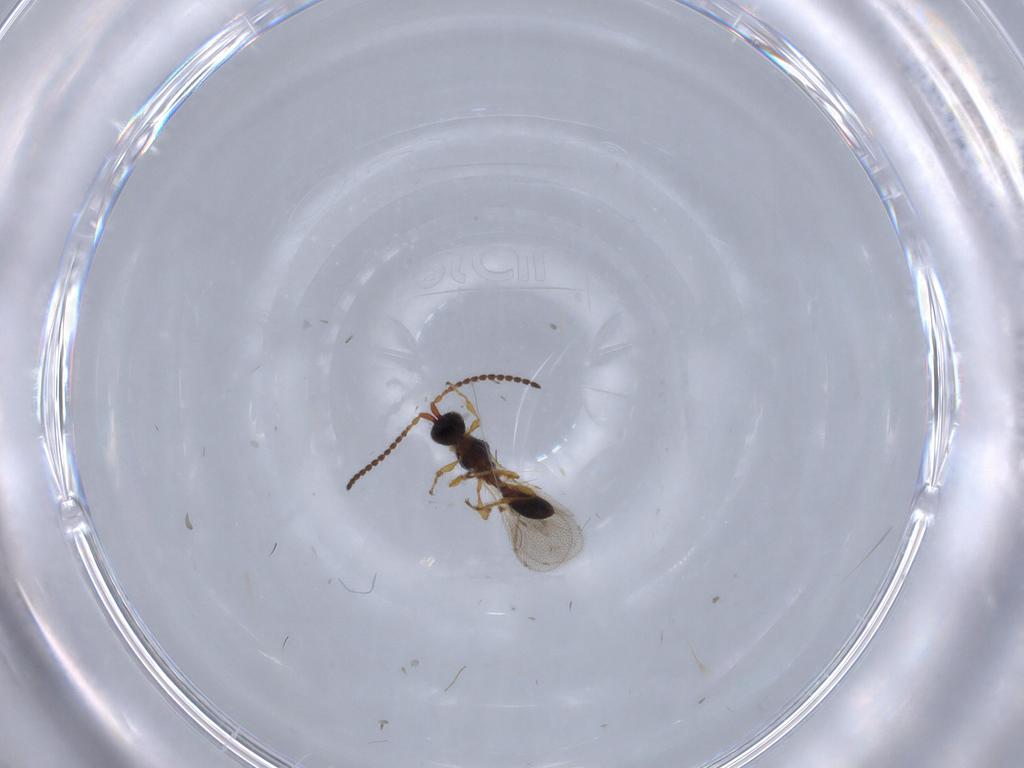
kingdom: Animalia
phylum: Arthropoda
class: Insecta
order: Hymenoptera
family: Diapriidae
